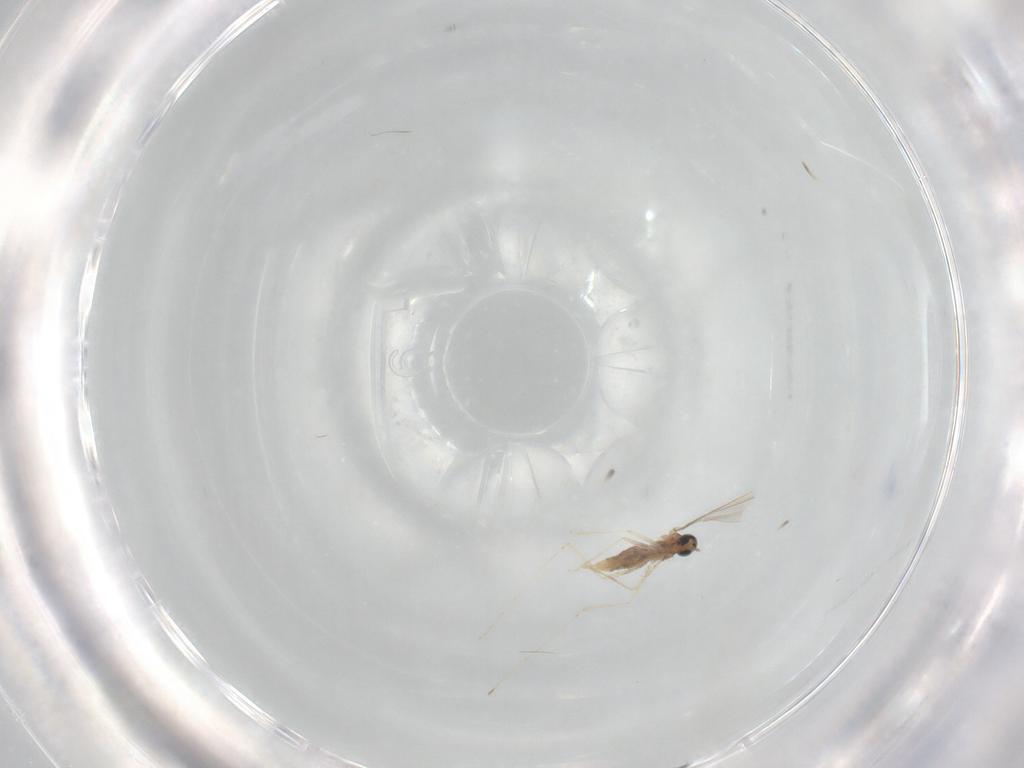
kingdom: Animalia
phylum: Arthropoda
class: Insecta
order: Diptera
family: Cecidomyiidae
